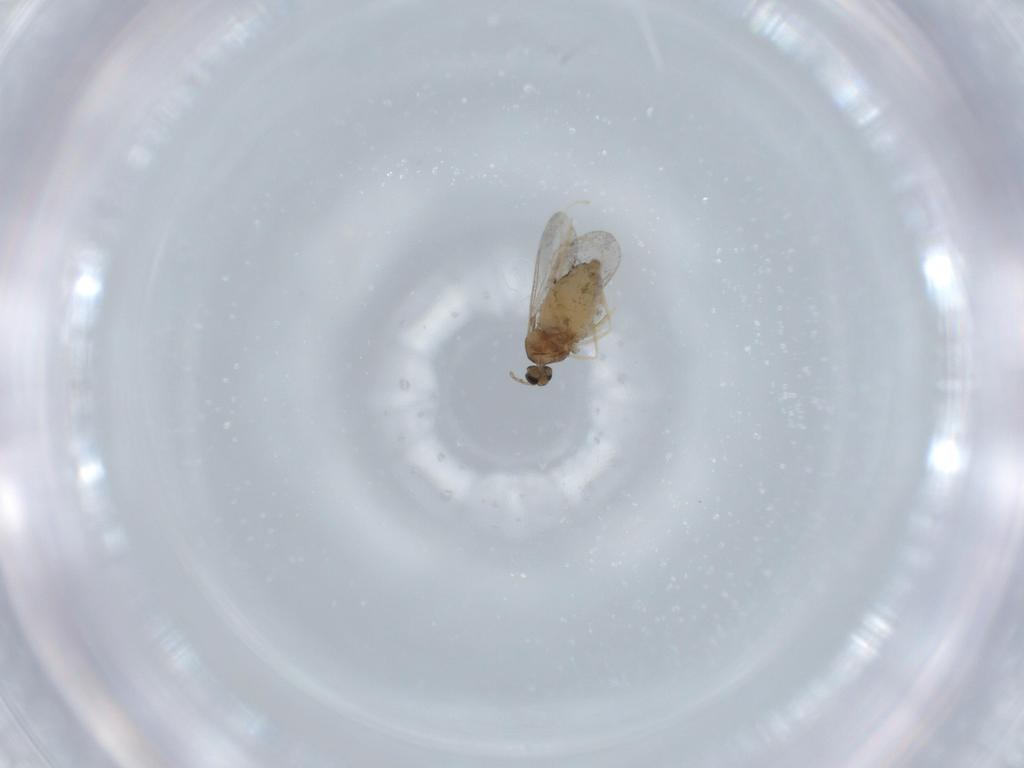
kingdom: Animalia
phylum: Arthropoda
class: Insecta
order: Diptera
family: Cecidomyiidae
